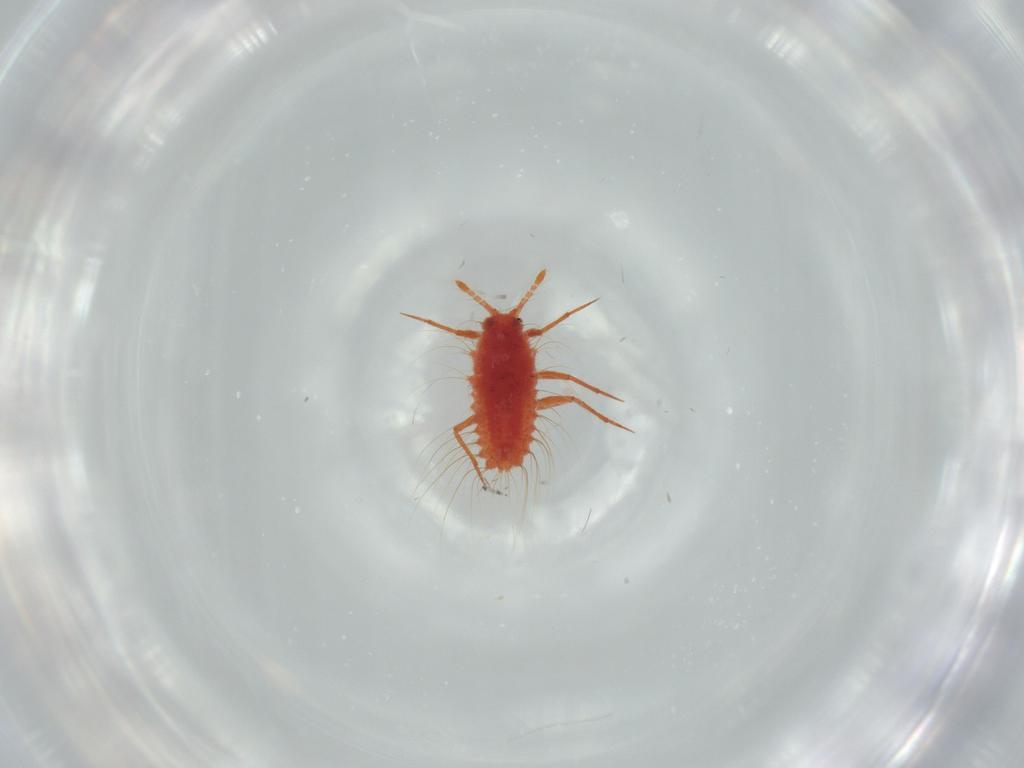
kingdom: Animalia
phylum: Arthropoda
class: Insecta
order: Hemiptera
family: Monophlebidae
